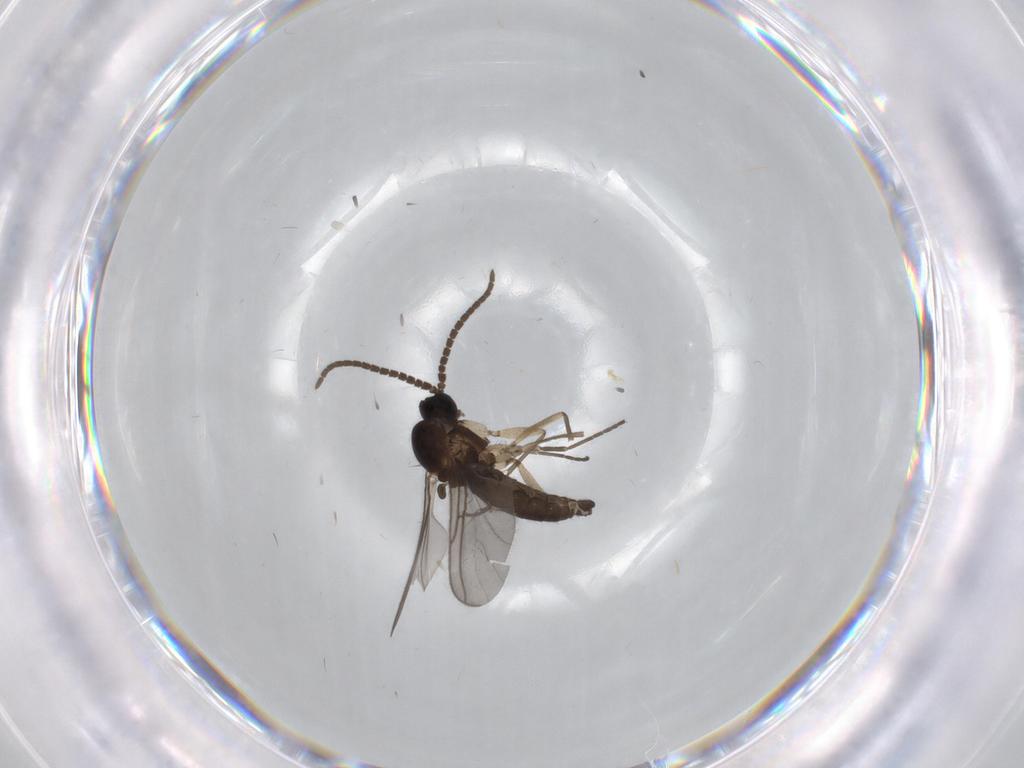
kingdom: Animalia
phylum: Arthropoda
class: Insecta
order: Diptera
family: Sciaridae
